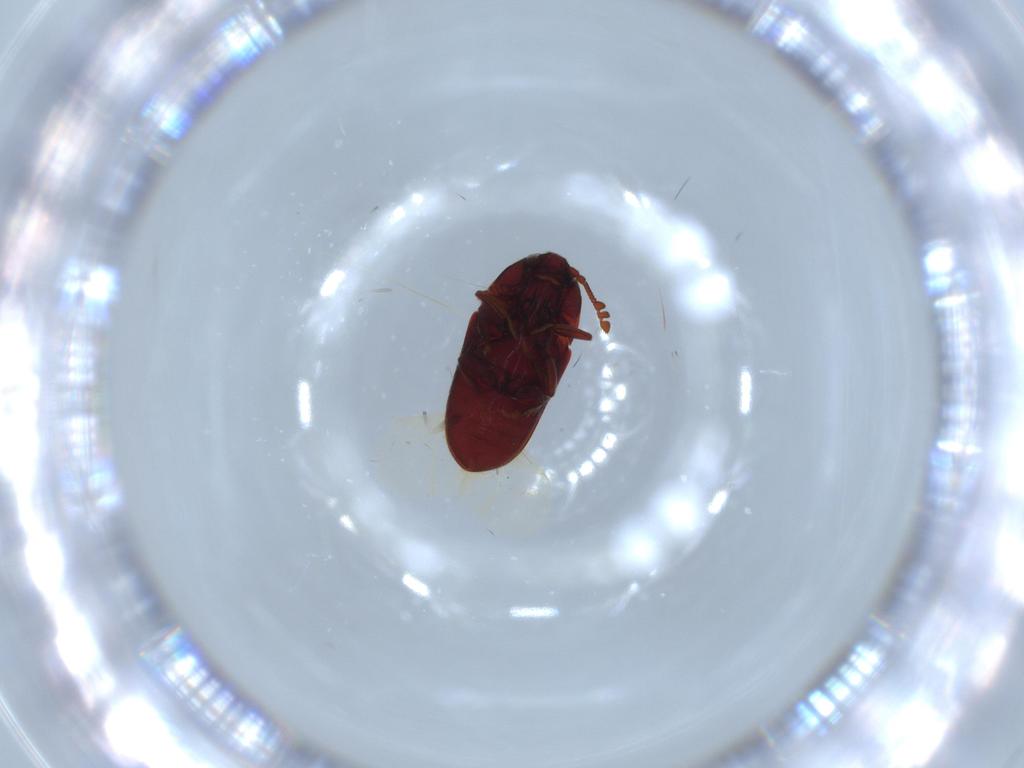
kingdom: Animalia
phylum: Arthropoda
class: Insecta
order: Coleoptera
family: Throscidae
